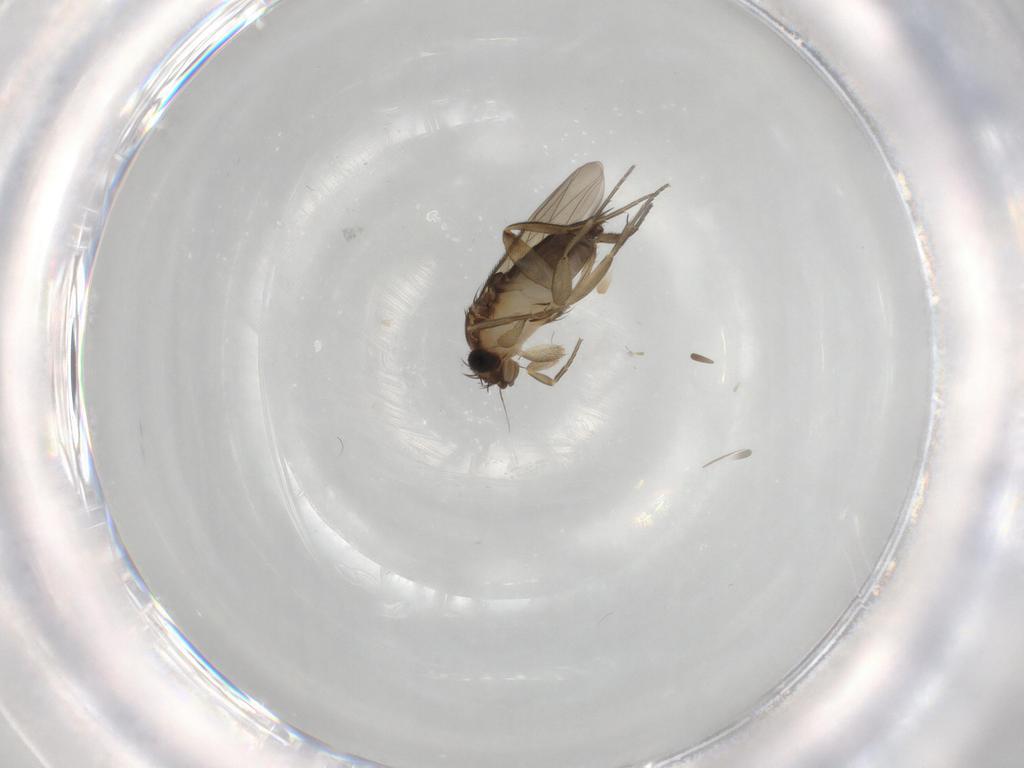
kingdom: Animalia
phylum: Arthropoda
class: Insecta
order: Diptera
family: Phoridae
